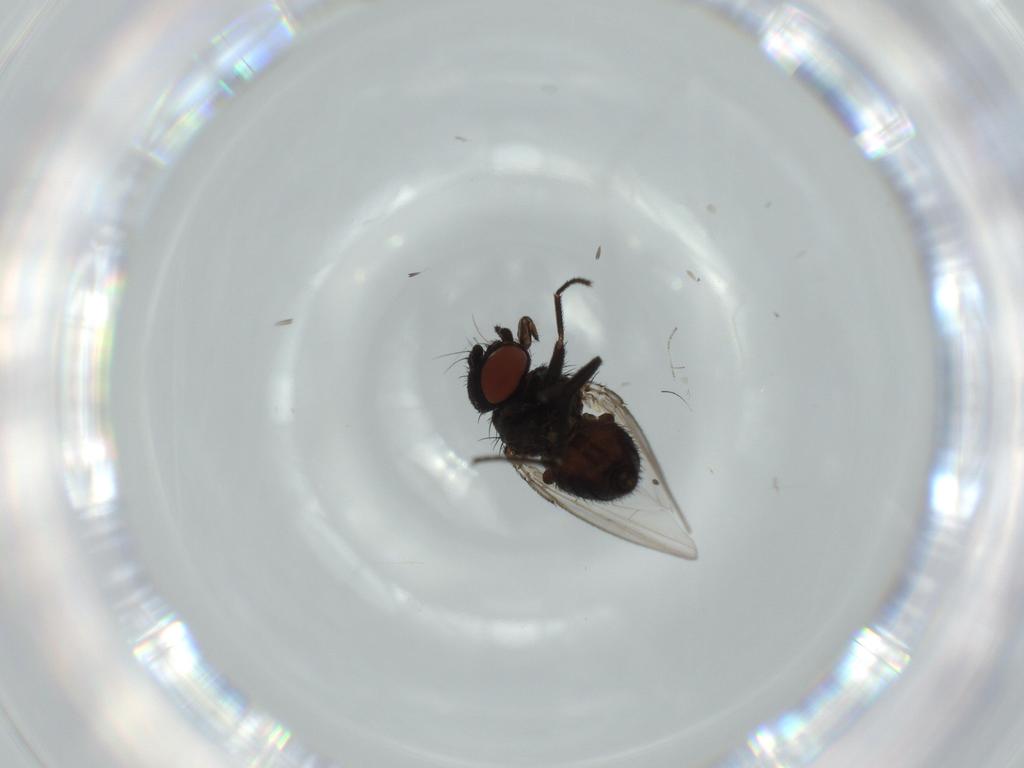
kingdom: Animalia
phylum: Arthropoda
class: Insecta
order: Diptera
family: Milichiidae
